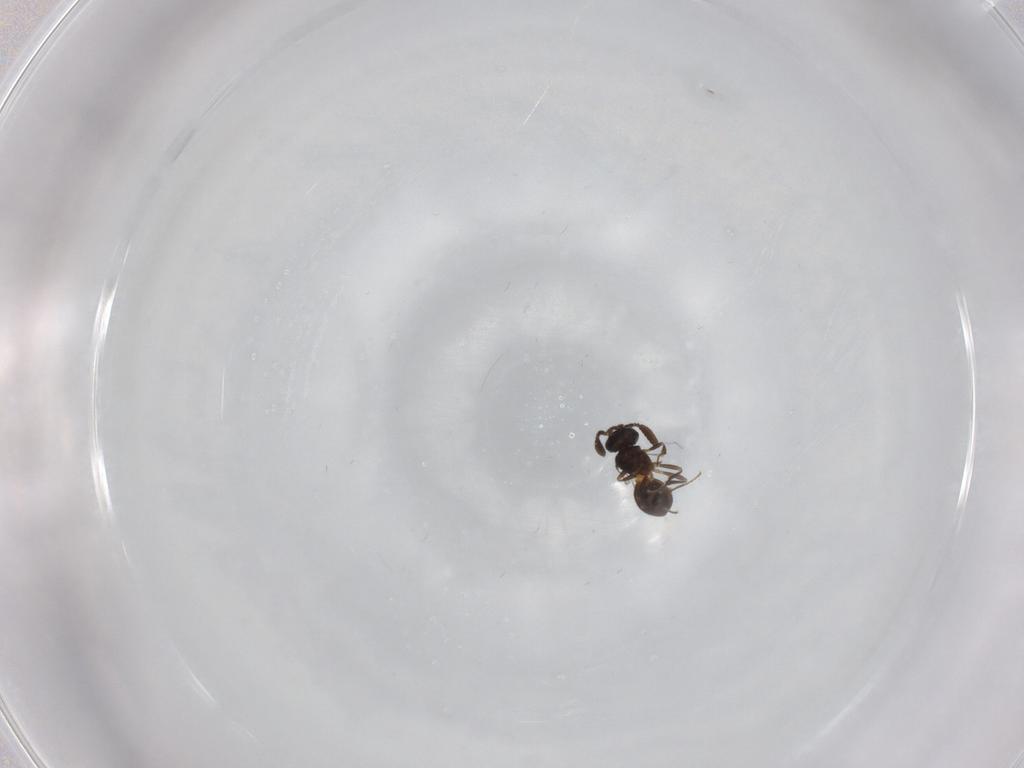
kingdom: Animalia
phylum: Arthropoda
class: Insecta
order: Hymenoptera
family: Scelionidae
